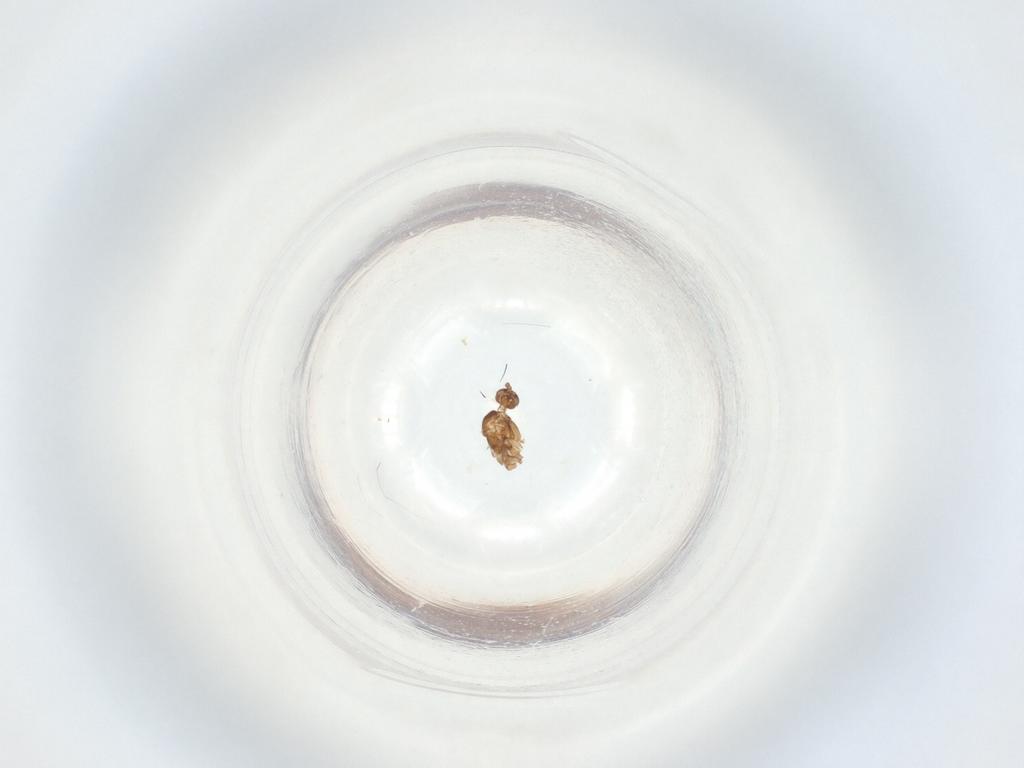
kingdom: Animalia
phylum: Arthropoda
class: Insecta
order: Diptera
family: Sciaridae
